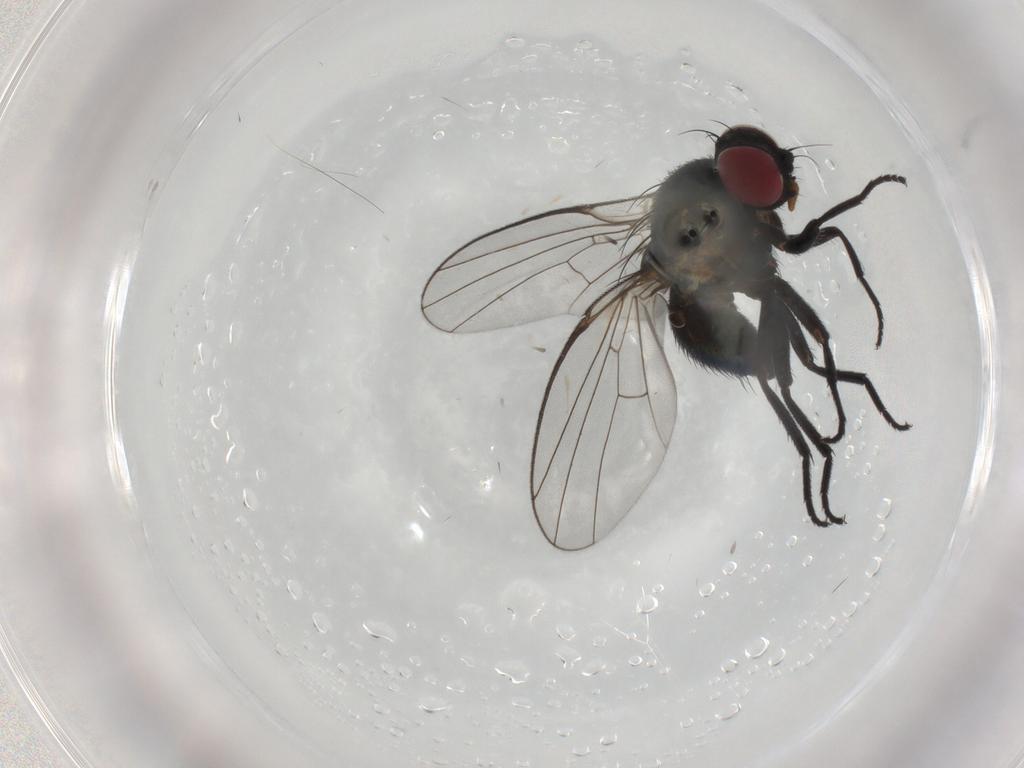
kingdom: Animalia
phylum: Arthropoda
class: Insecta
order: Diptera
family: Agromyzidae
